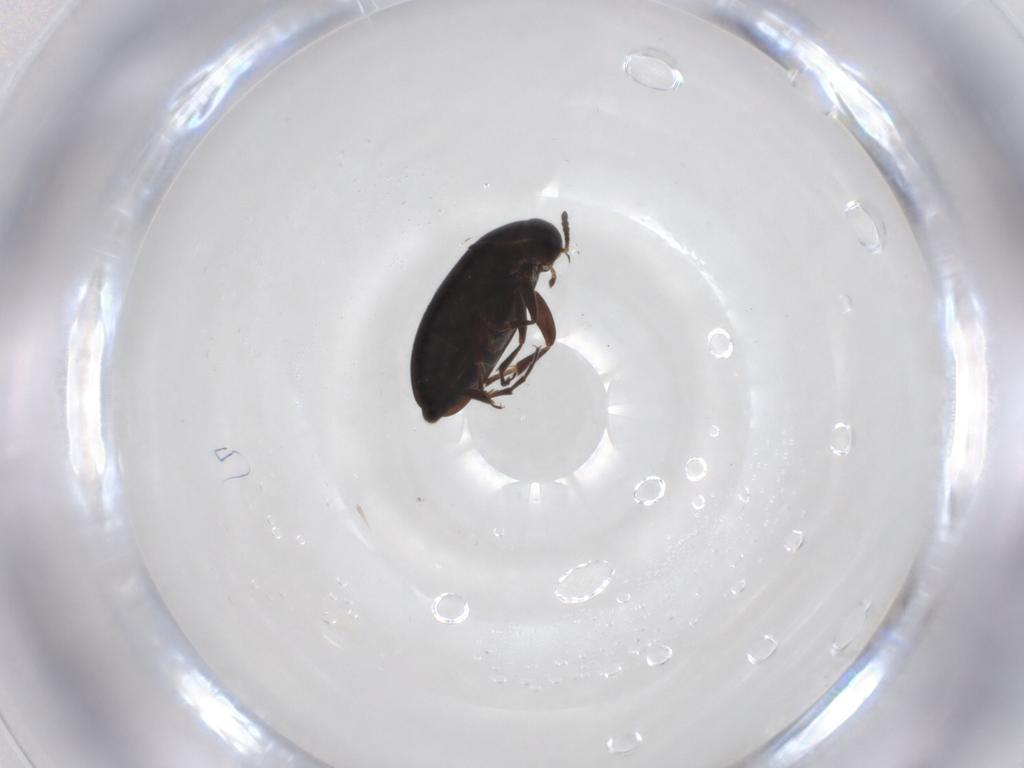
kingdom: Animalia
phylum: Arthropoda
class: Insecta
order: Coleoptera
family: Scraptiidae
